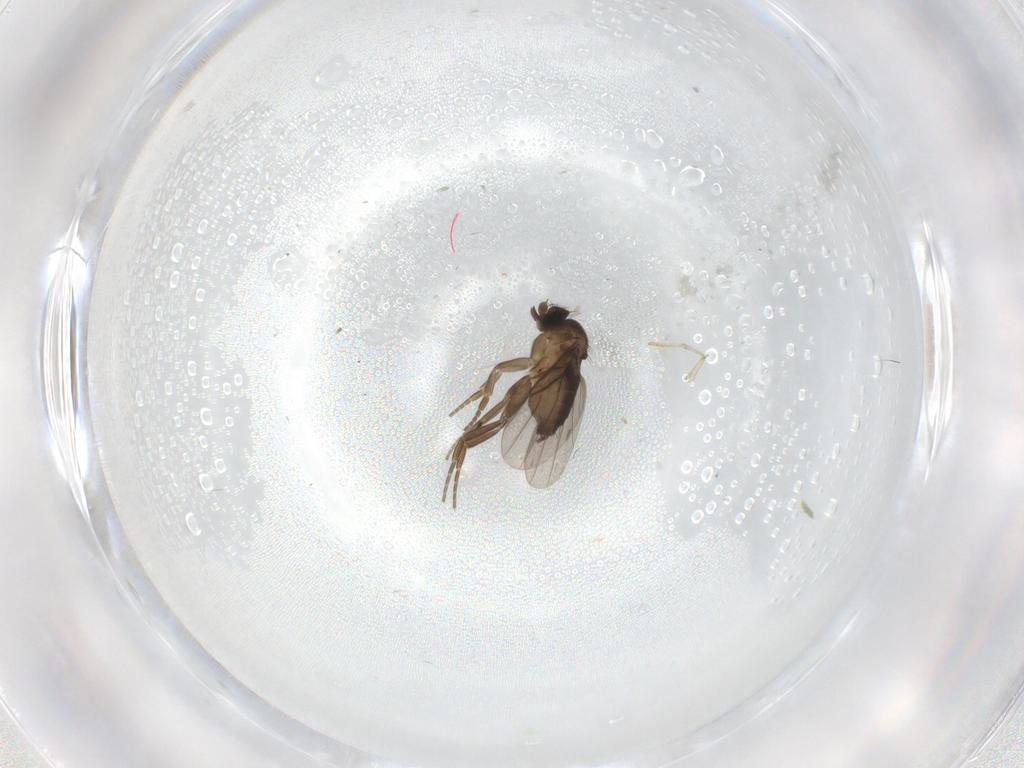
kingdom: Animalia
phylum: Arthropoda
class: Insecta
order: Diptera
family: Phoridae
